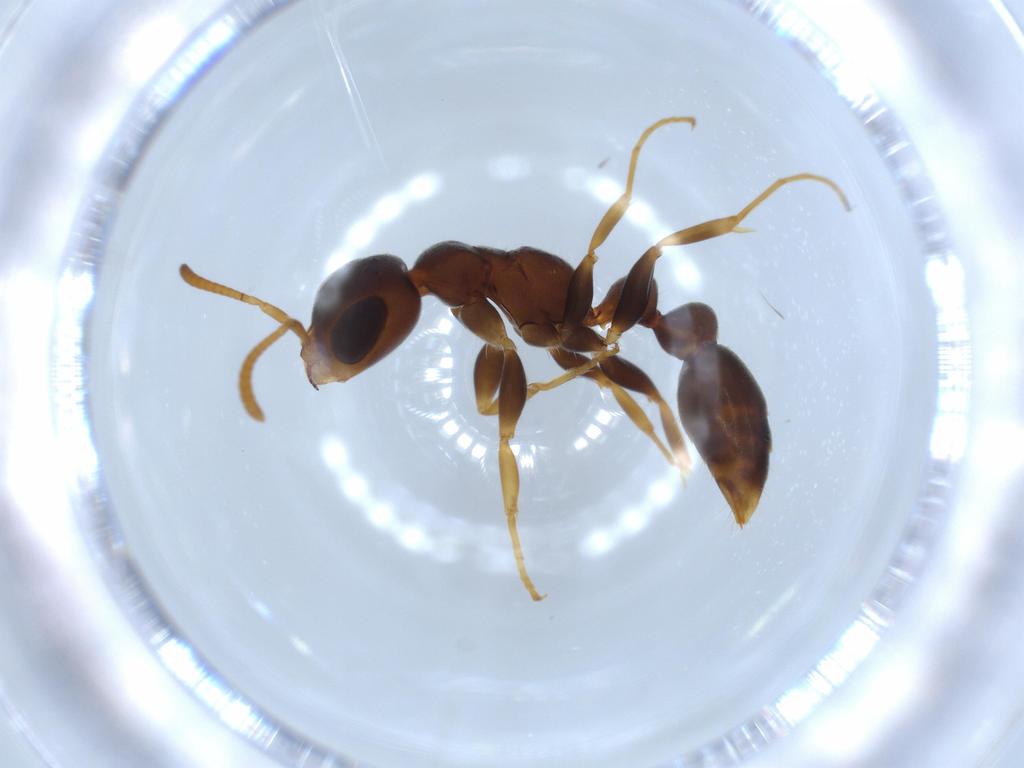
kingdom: Animalia
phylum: Arthropoda
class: Insecta
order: Hymenoptera
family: Formicidae
